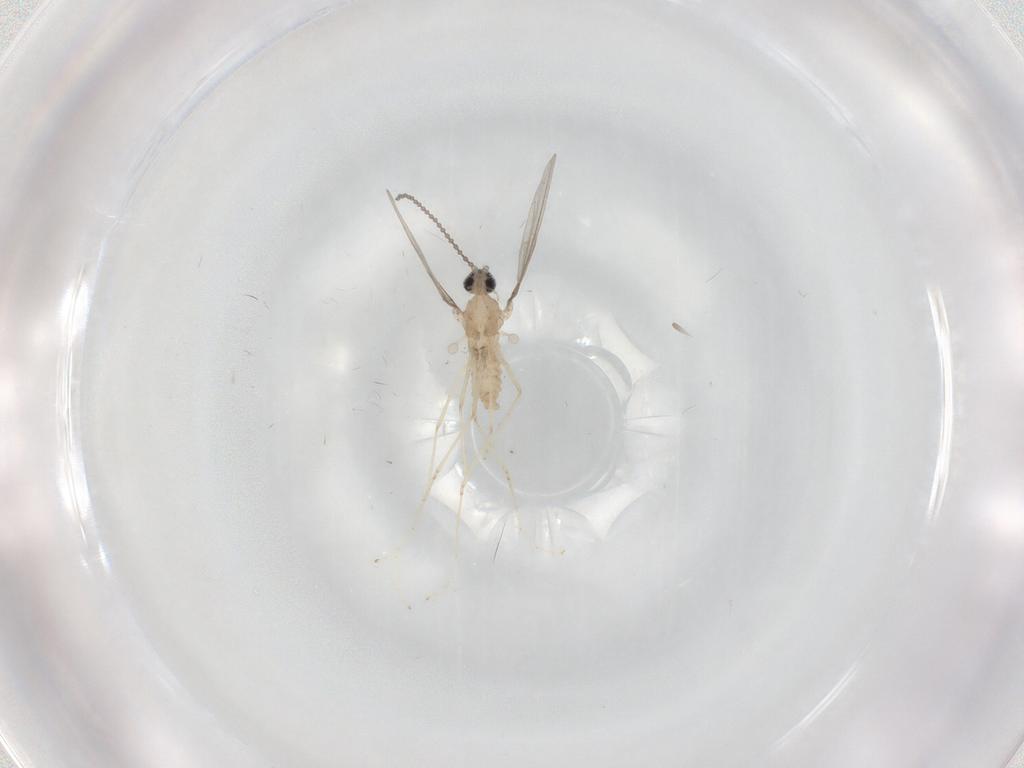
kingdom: Animalia
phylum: Arthropoda
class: Insecta
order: Diptera
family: Cecidomyiidae
